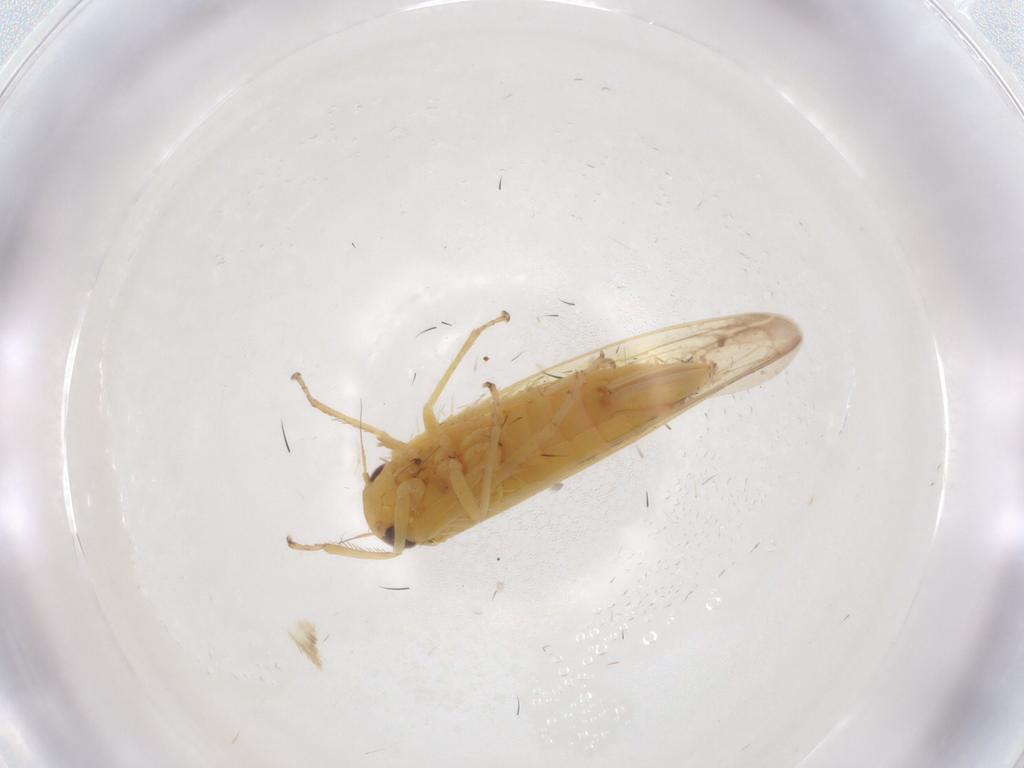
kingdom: Animalia
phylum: Arthropoda
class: Insecta
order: Hemiptera
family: Cicadellidae
